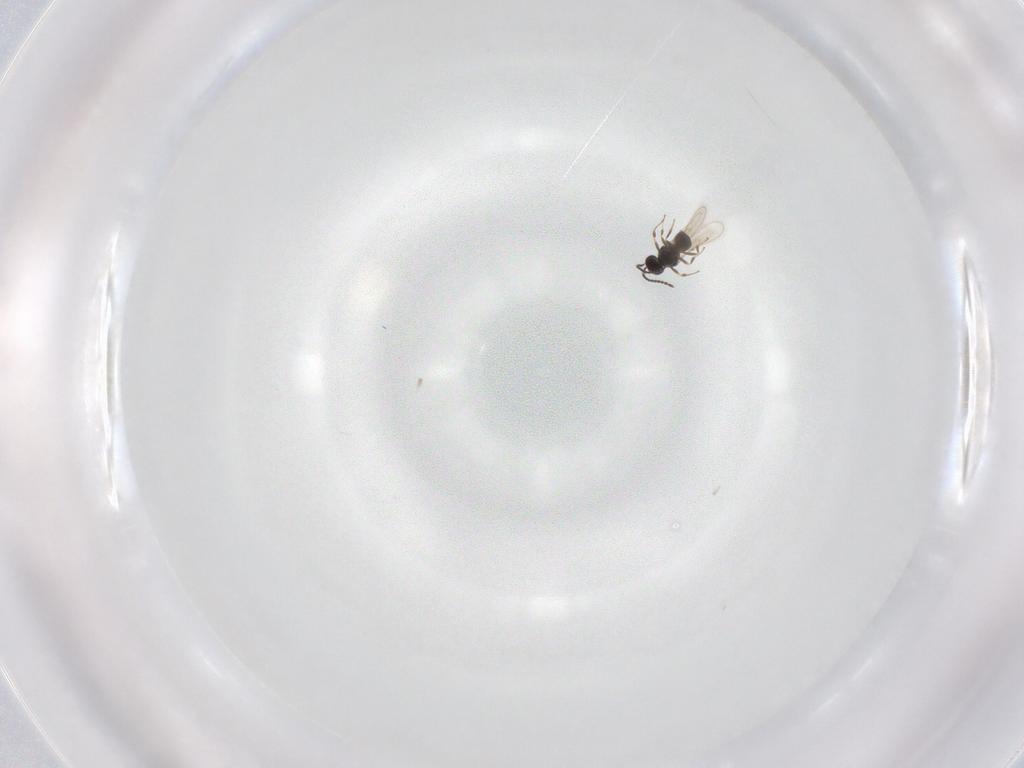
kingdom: Animalia
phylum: Arthropoda
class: Insecta
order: Hymenoptera
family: Scelionidae
